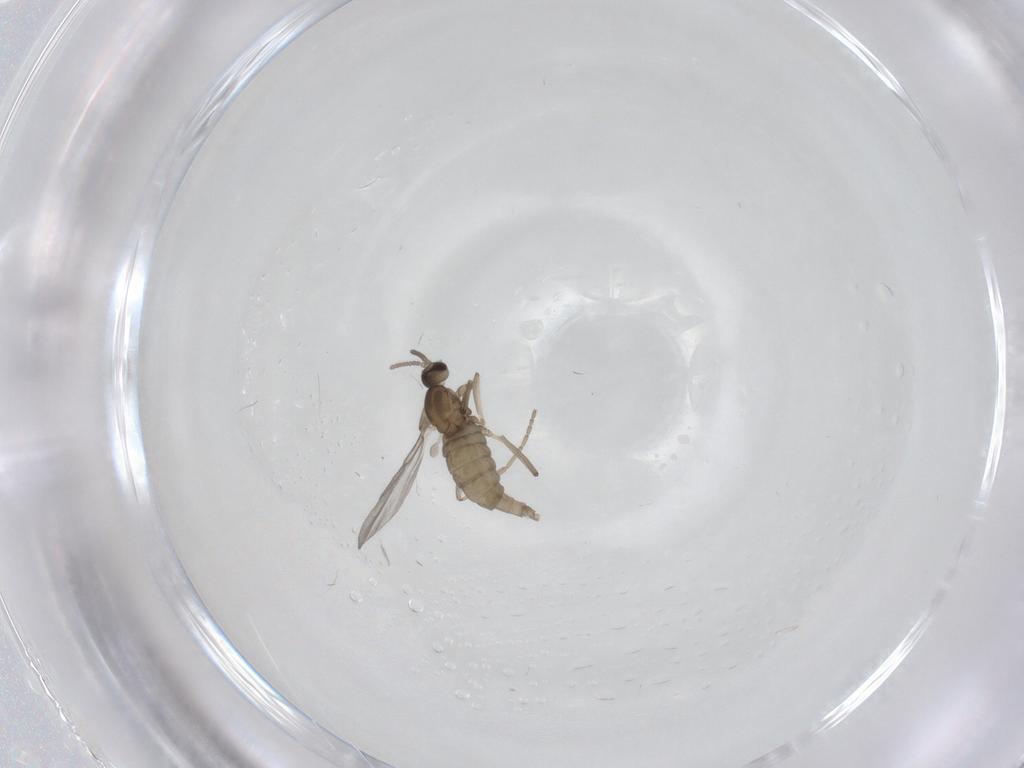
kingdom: Animalia
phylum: Arthropoda
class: Insecta
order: Diptera
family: Cecidomyiidae
